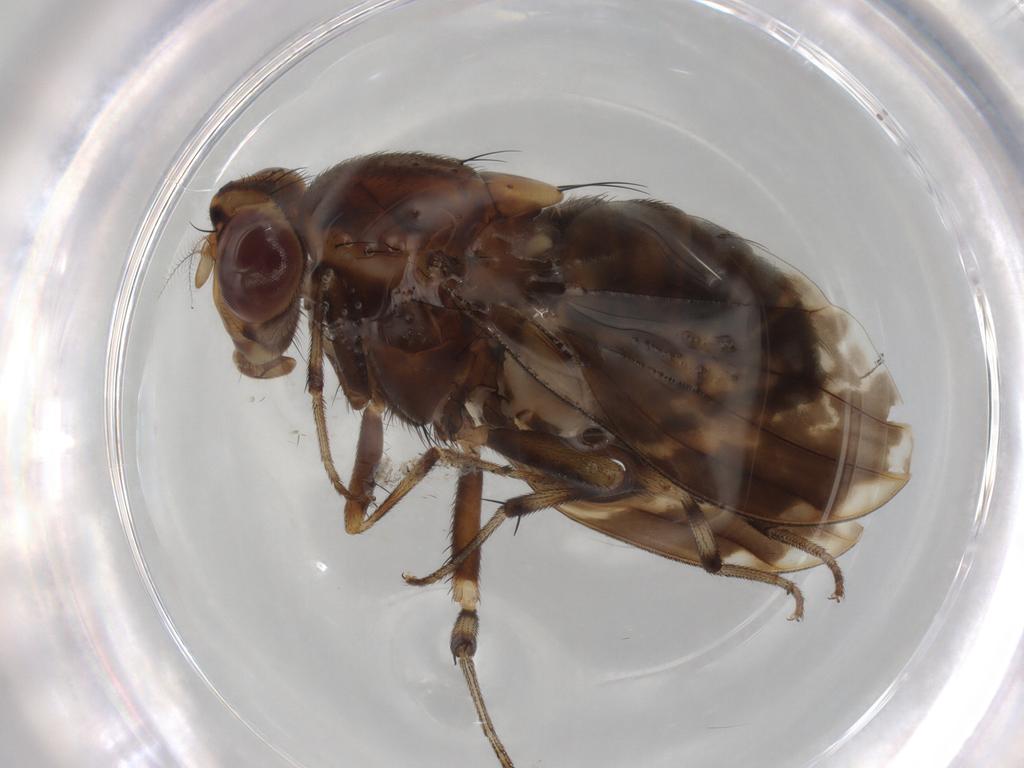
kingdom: Animalia
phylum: Arthropoda
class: Insecta
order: Diptera
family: Lauxaniidae
